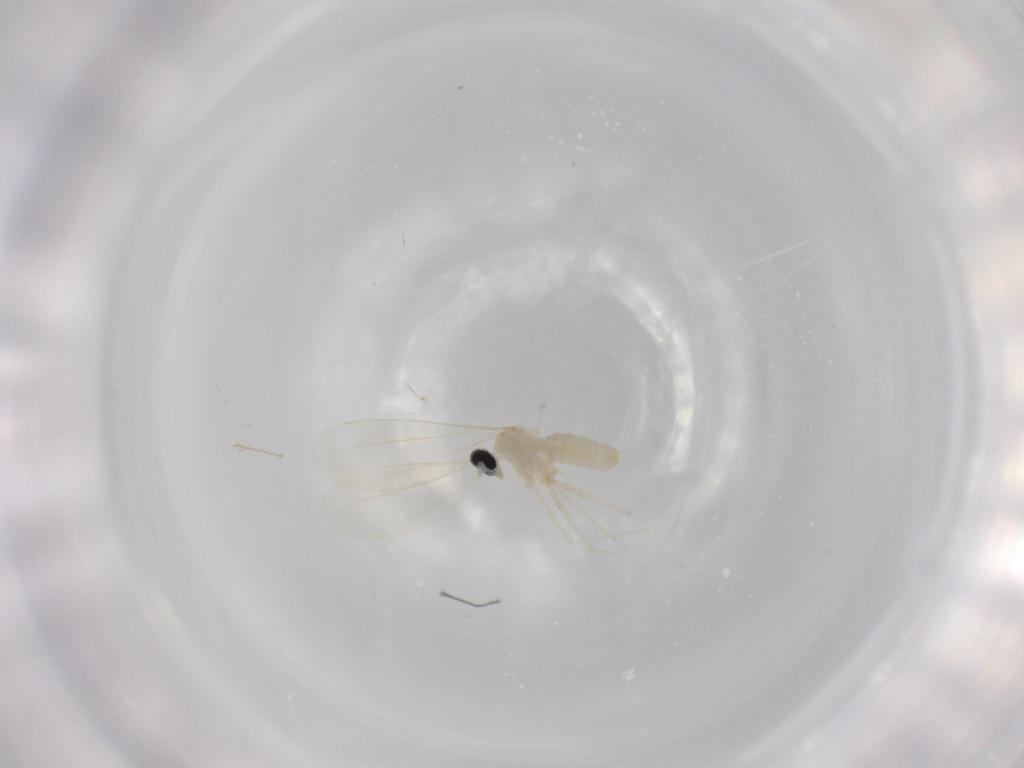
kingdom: Animalia
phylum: Arthropoda
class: Insecta
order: Diptera
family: Cecidomyiidae
